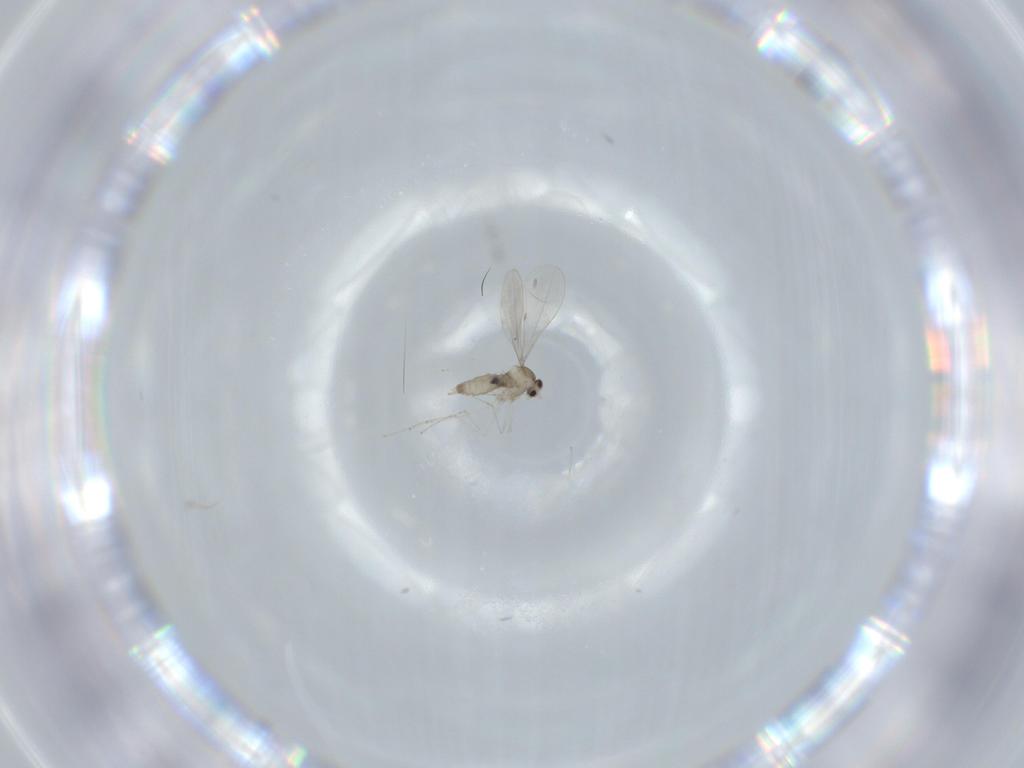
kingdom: Animalia
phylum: Arthropoda
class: Insecta
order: Diptera
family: Cecidomyiidae
